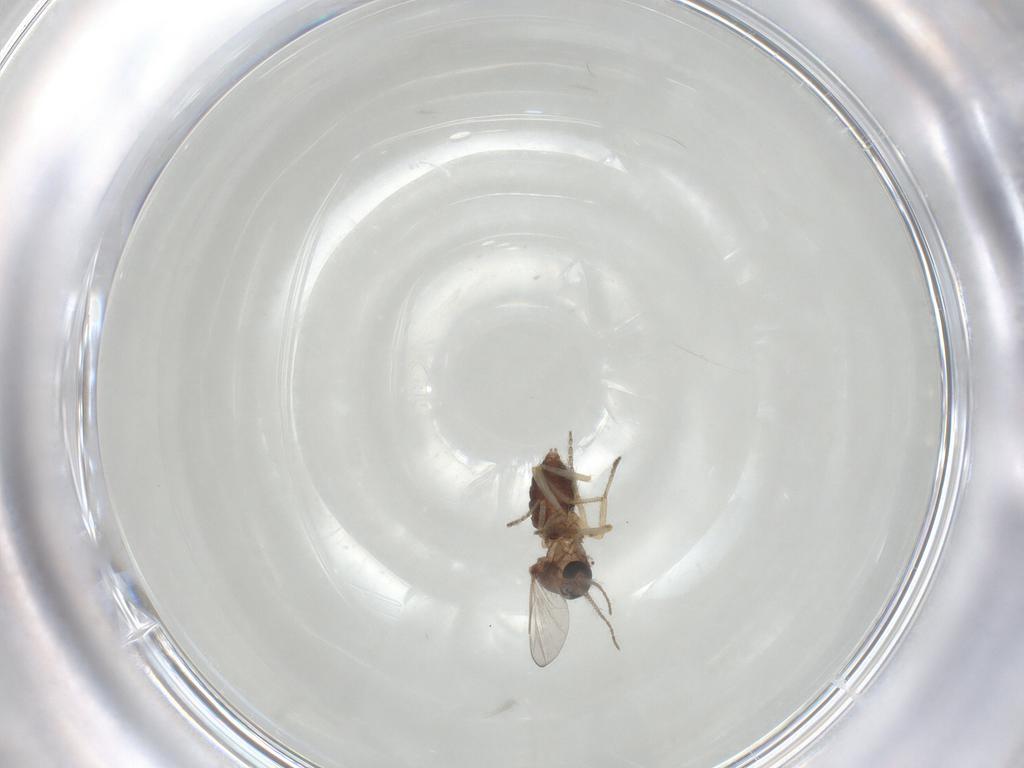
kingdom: Animalia
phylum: Arthropoda
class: Insecta
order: Diptera
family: Ceratopogonidae
